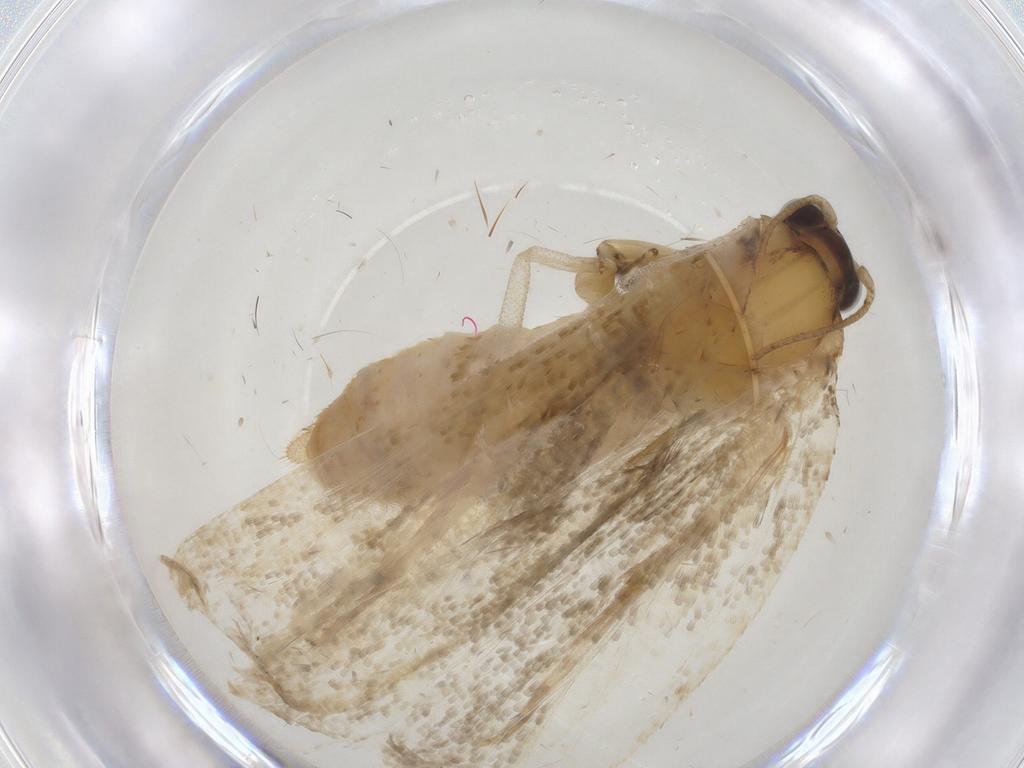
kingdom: Animalia
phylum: Arthropoda
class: Insecta
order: Lepidoptera
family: Tortricidae
